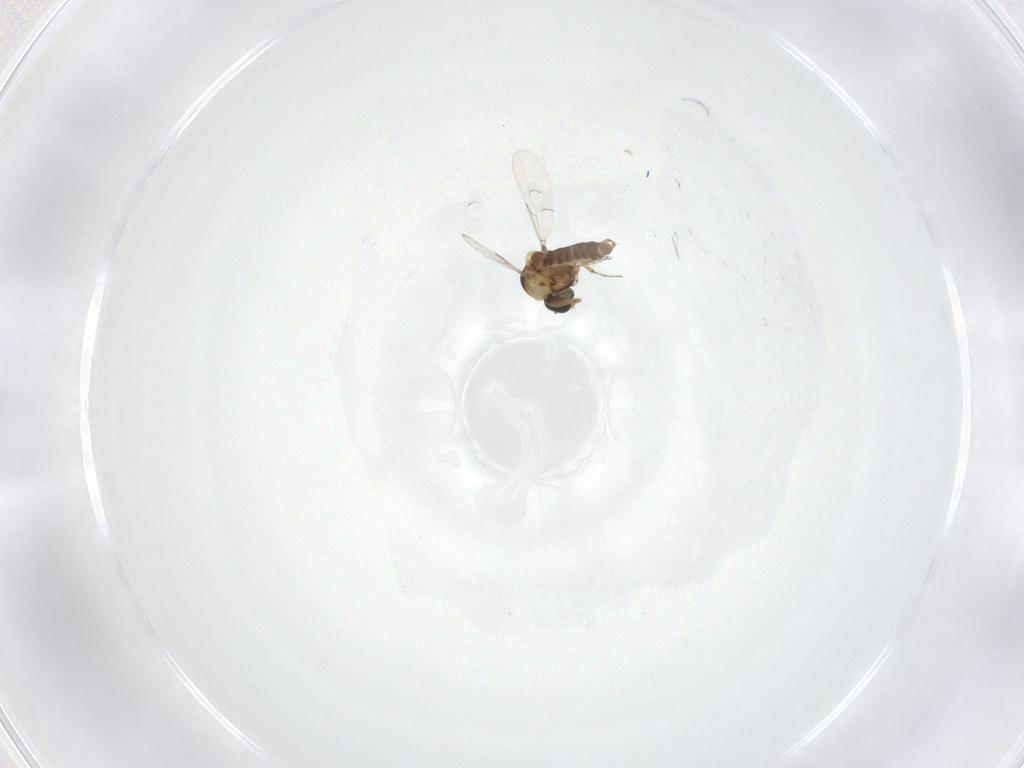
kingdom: Animalia
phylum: Arthropoda
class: Insecta
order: Diptera
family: Ceratopogonidae
